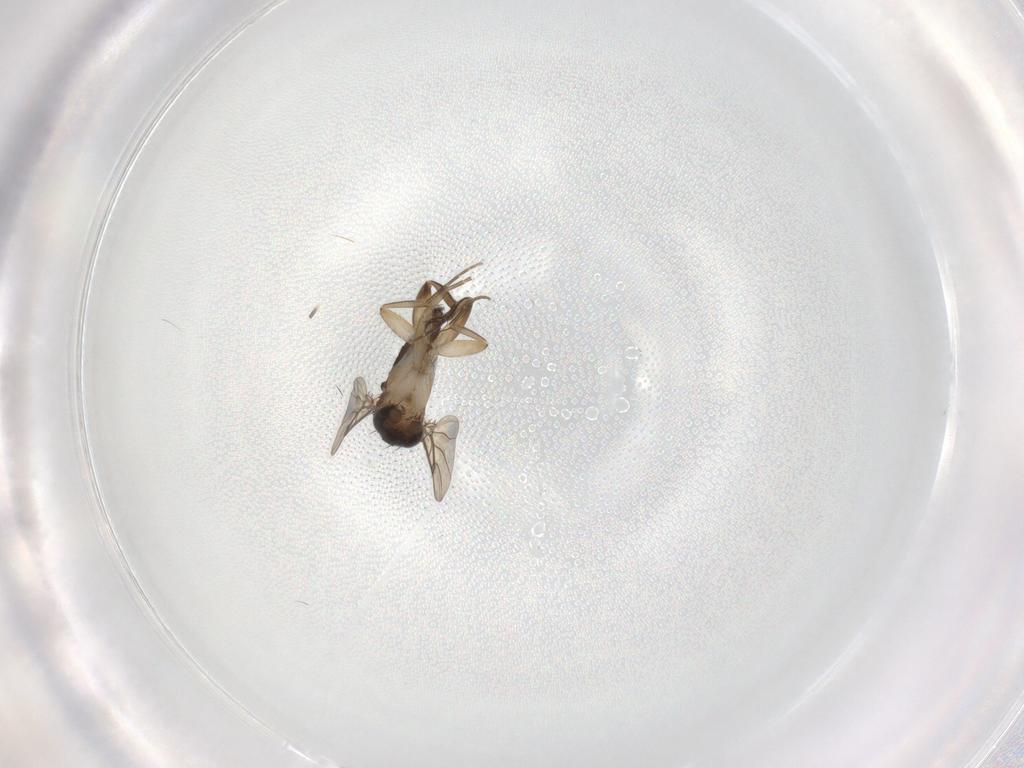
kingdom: Animalia
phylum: Arthropoda
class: Insecta
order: Diptera
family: Phoridae
